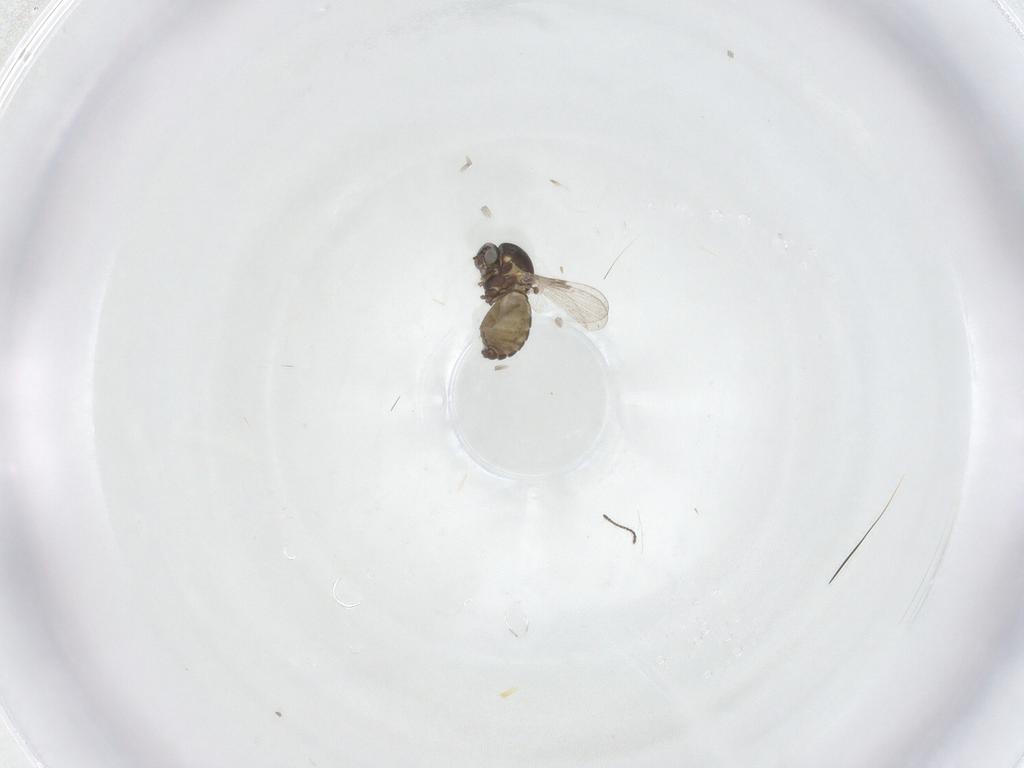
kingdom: Animalia
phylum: Arthropoda
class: Insecta
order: Diptera
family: Ceratopogonidae
